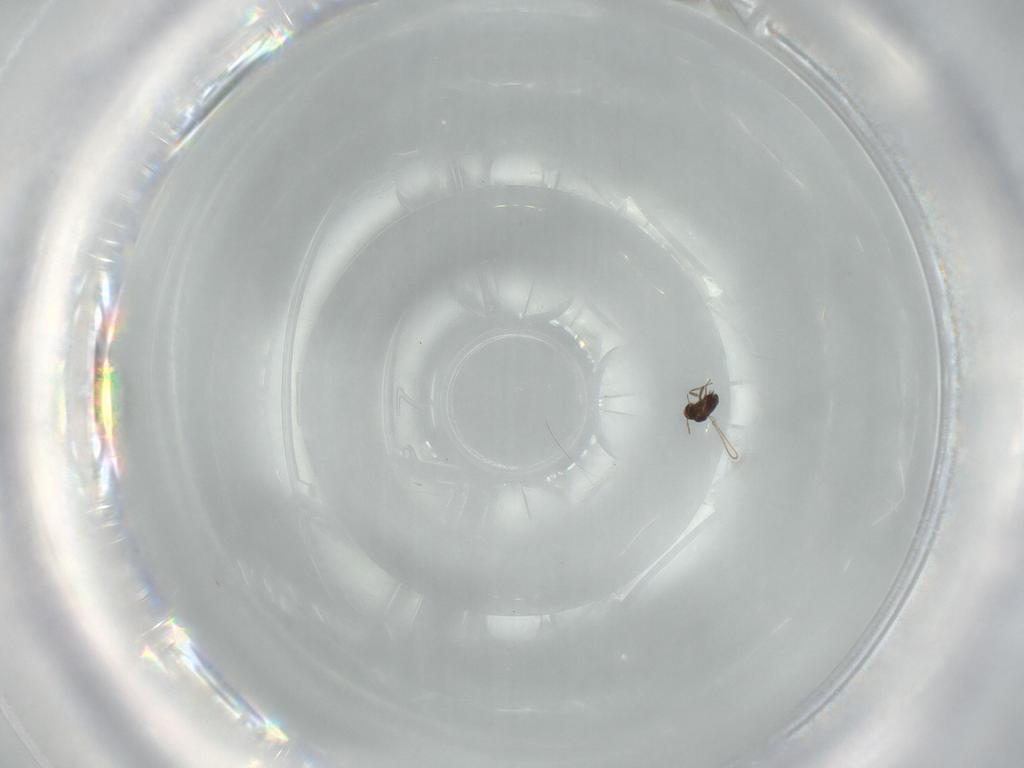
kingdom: Animalia
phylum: Arthropoda
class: Insecta
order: Hymenoptera
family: Mymaridae
